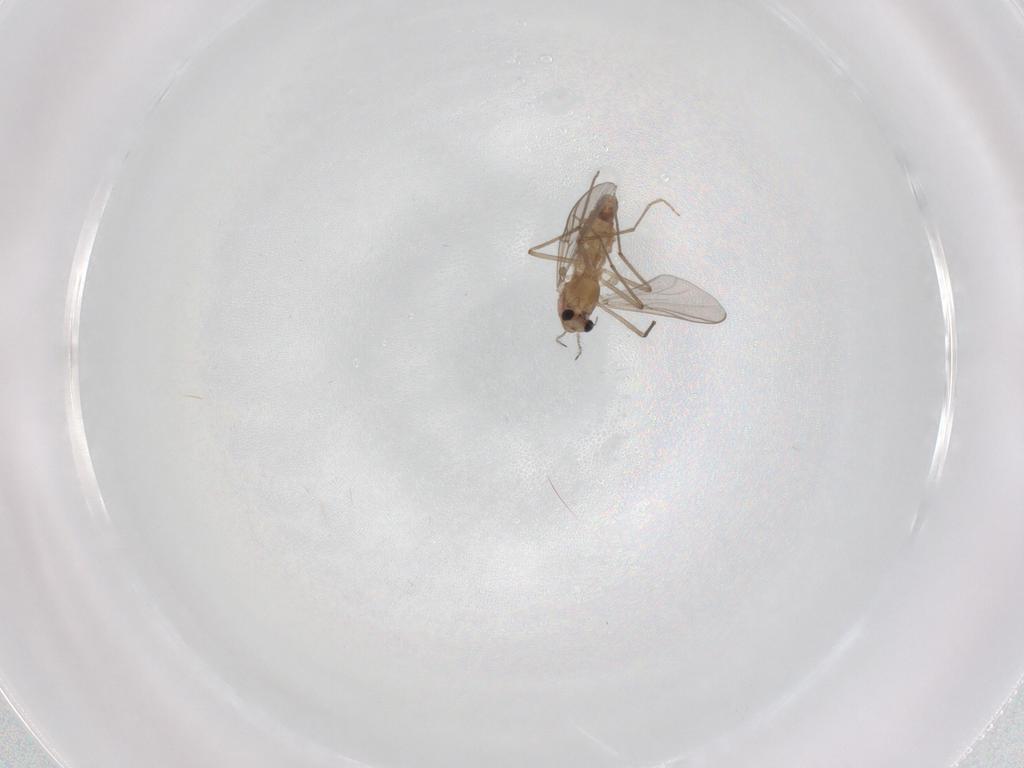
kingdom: Animalia
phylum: Arthropoda
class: Insecta
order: Diptera
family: Chironomidae
